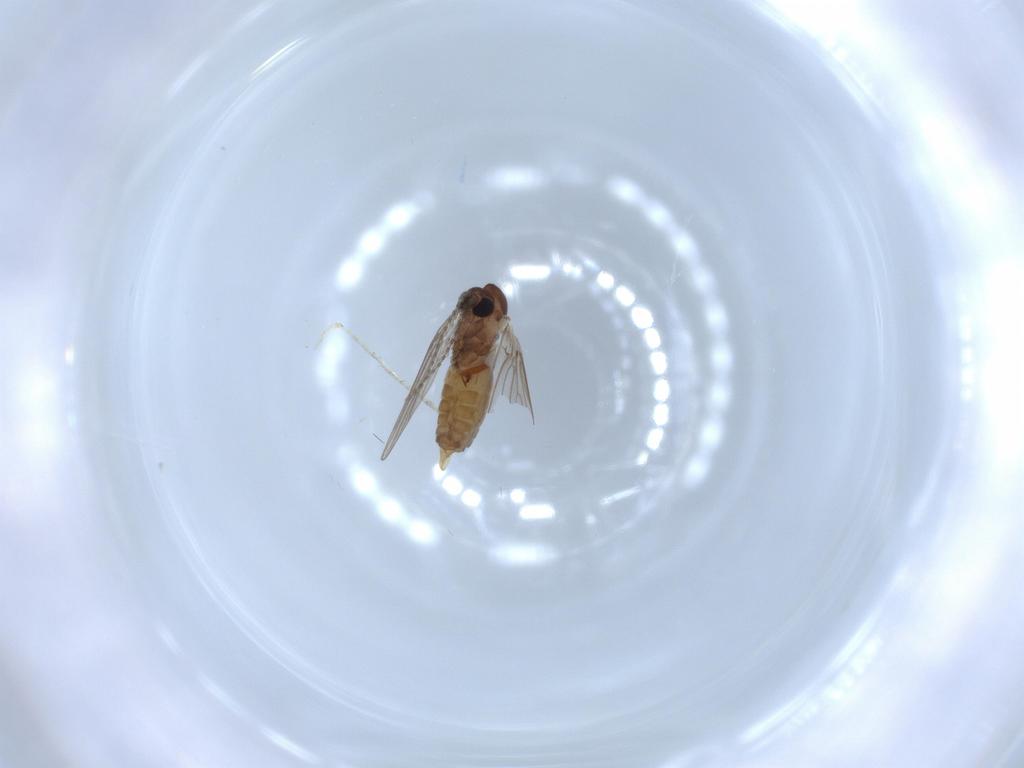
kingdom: Animalia
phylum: Arthropoda
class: Insecta
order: Diptera
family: Psychodidae
